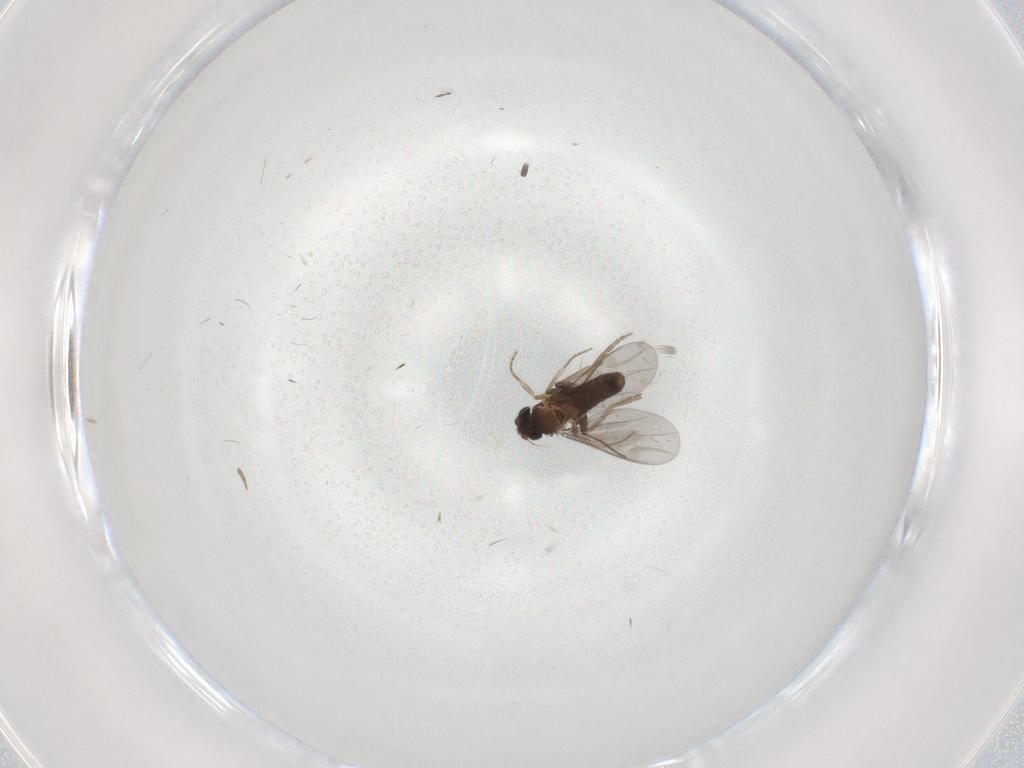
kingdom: Animalia
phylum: Arthropoda
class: Insecta
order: Diptera
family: Chironomidae
